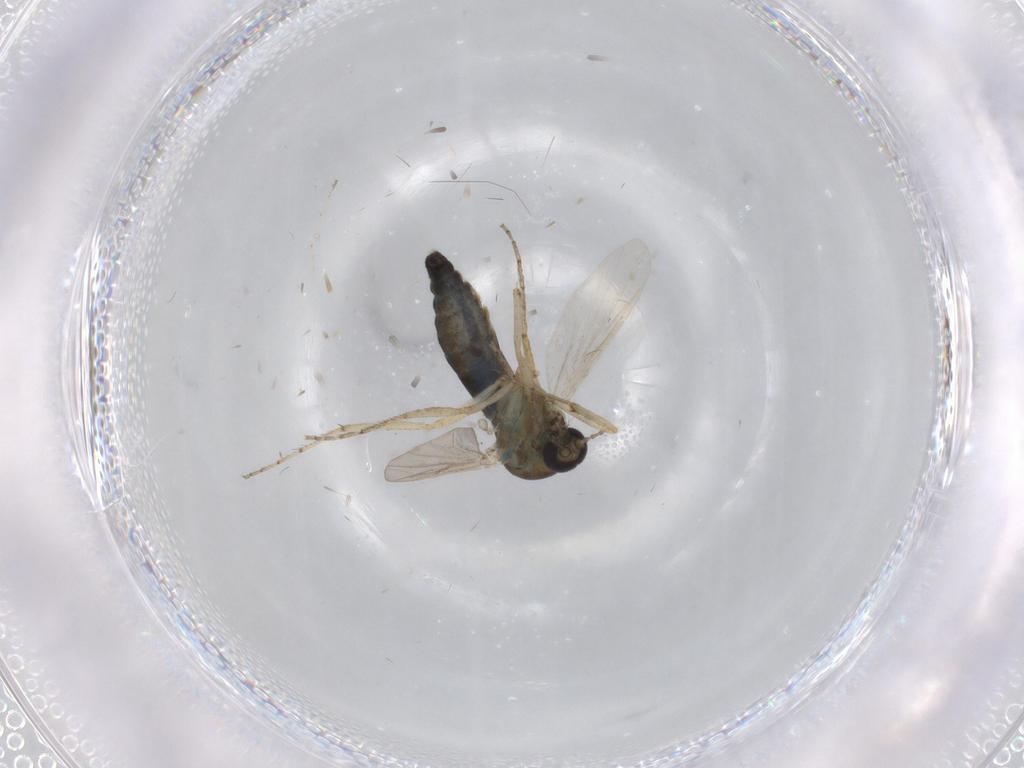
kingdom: Animalia
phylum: Arthropoda
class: Insecta
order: Diptera
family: Ceratopogonidae
